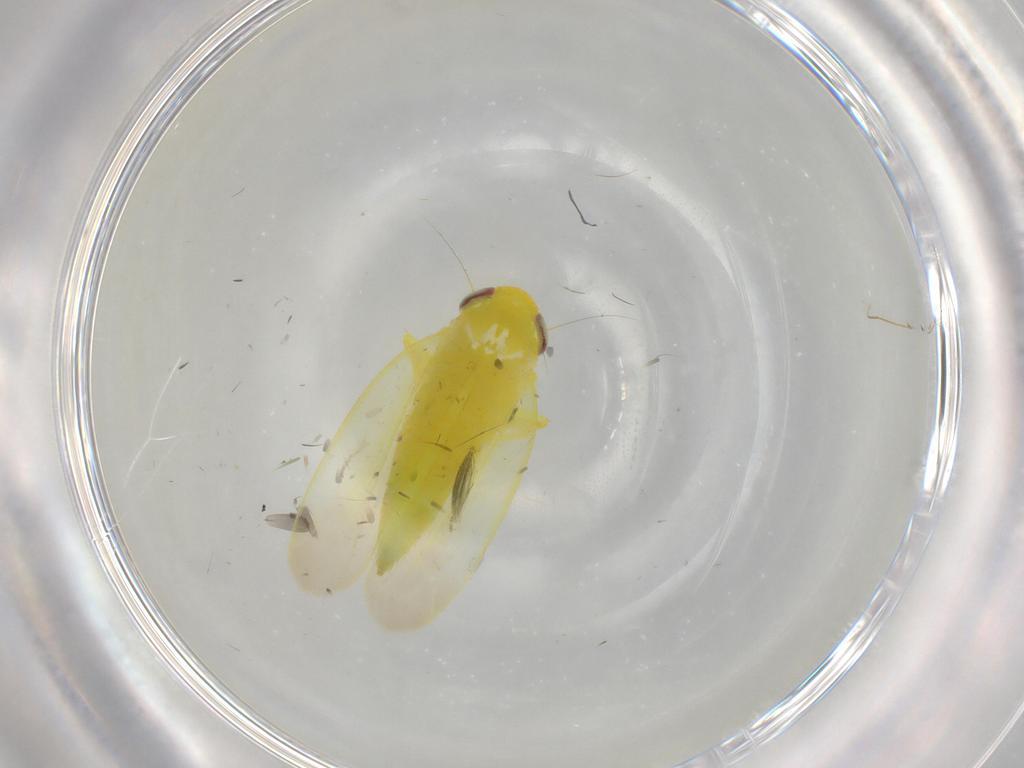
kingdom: Animalia
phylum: Arthropoda
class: Insecta
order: Hemiptera
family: Cicadellidae
